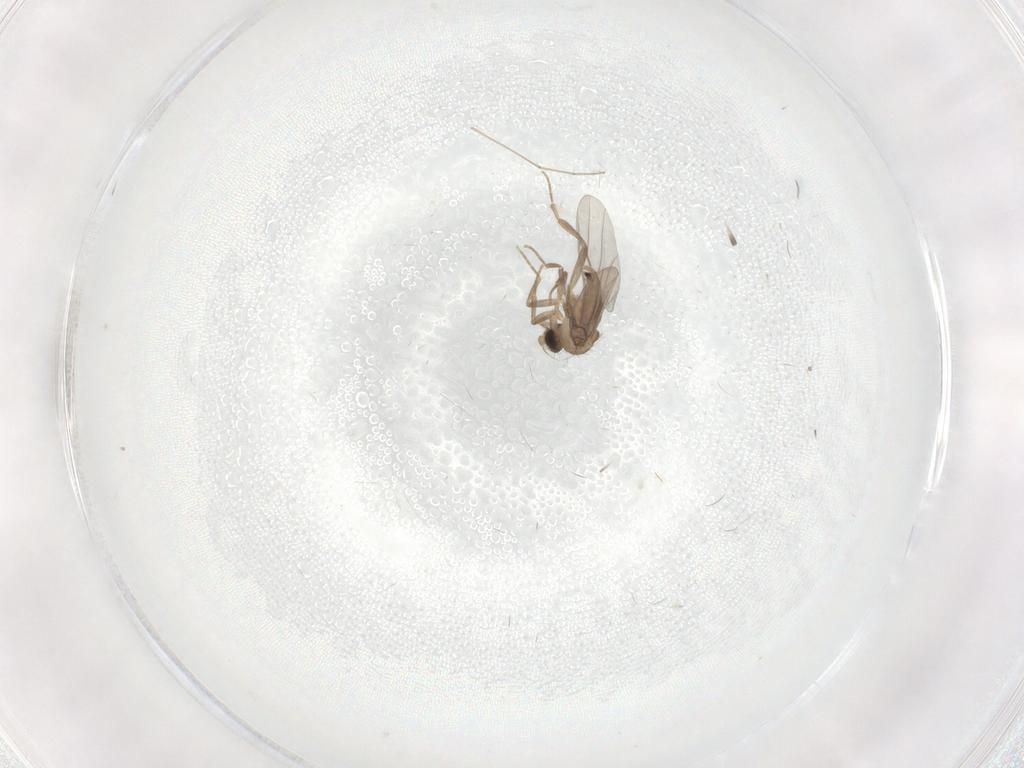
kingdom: Animalia
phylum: Arthropoda
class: Insecta
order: Diptera
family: Cecidomyiidae
